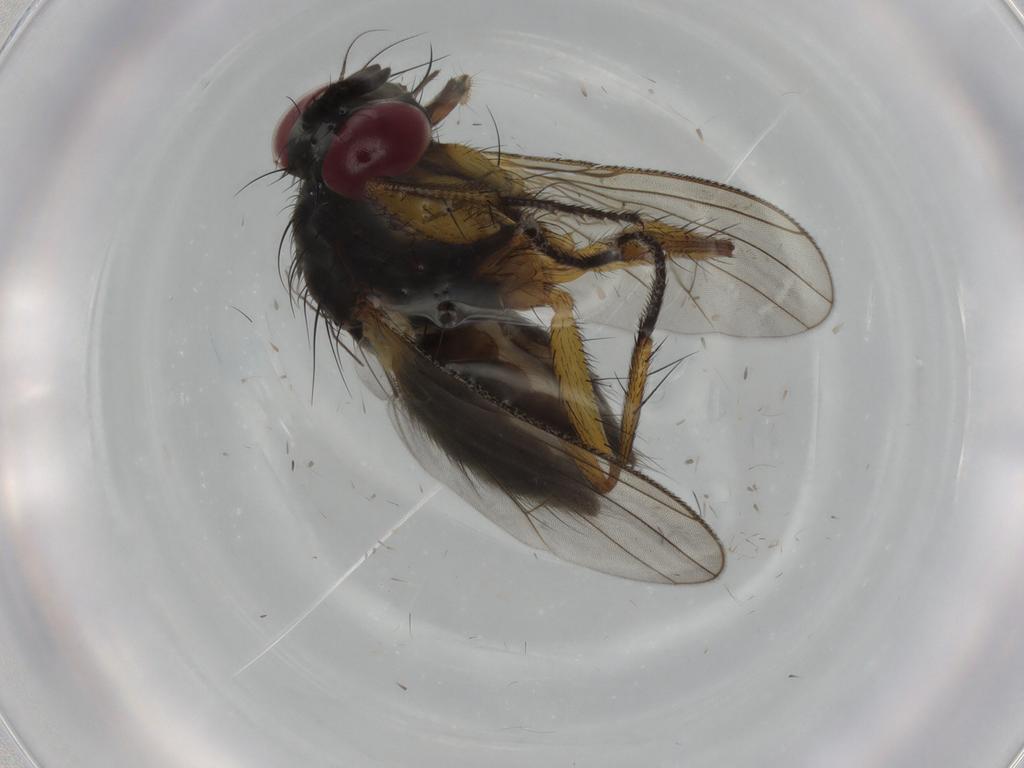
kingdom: Animalia
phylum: Arthropoda
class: Insecta
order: Diptera
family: Muscidae
